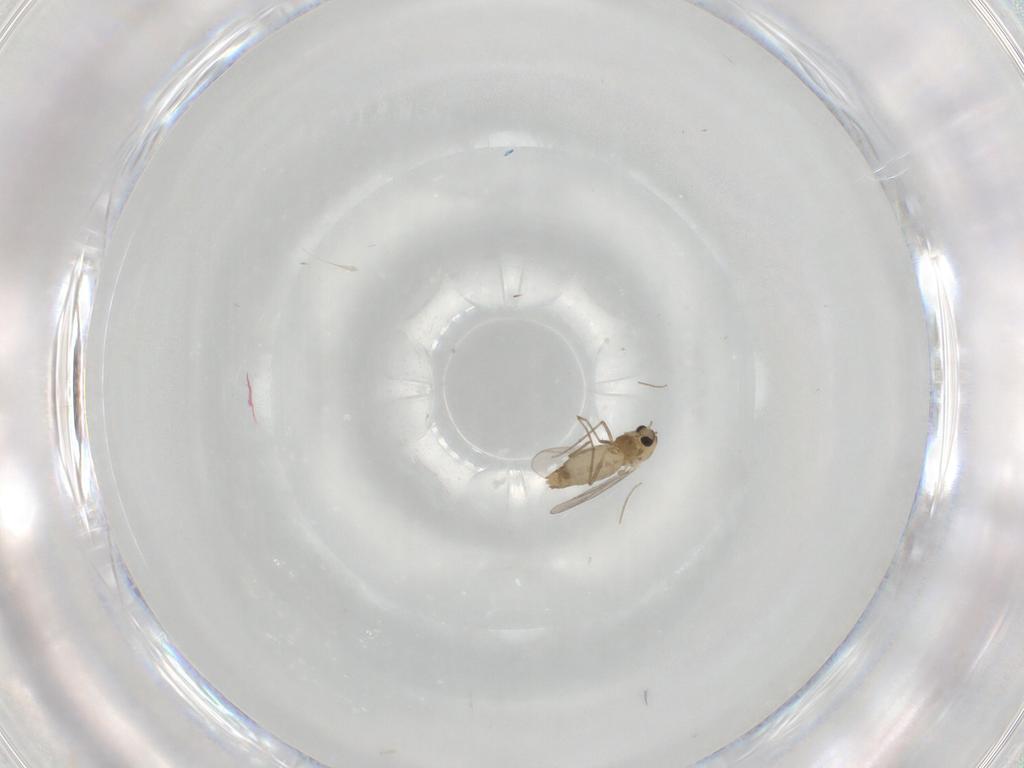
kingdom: Animalia
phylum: Arthropoda
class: Insecta
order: Diptera
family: Chironomidae
